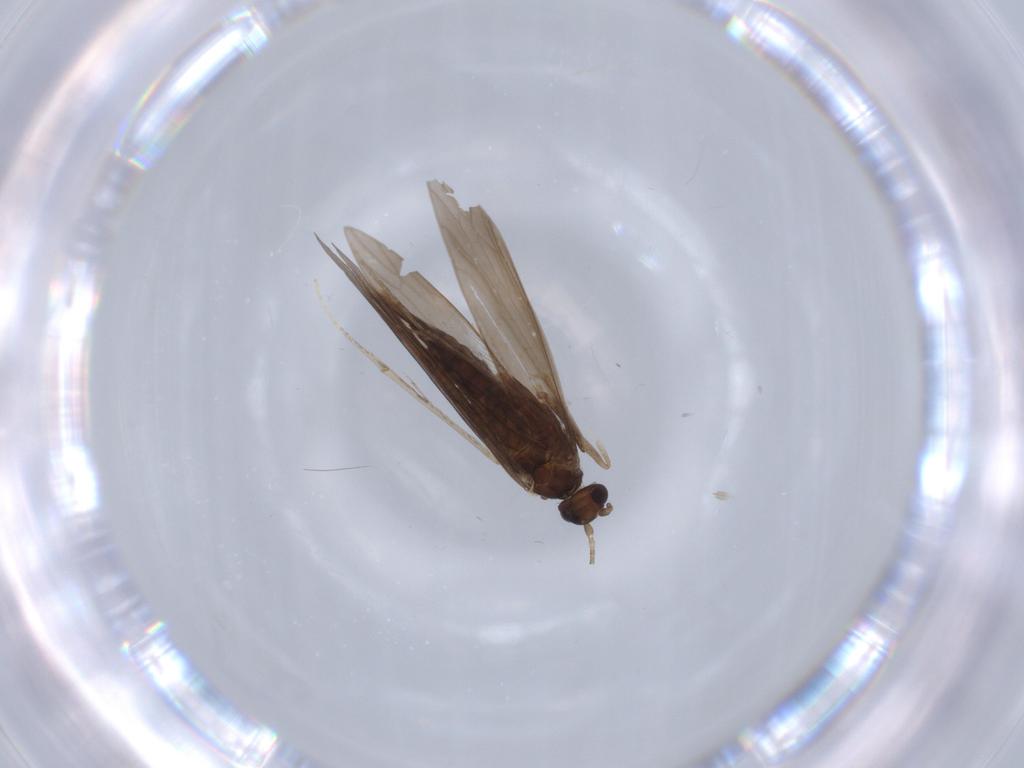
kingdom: Animalia
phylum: Arthropoda
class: Insecta
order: Trichoptera
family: Xiphocentronidae
